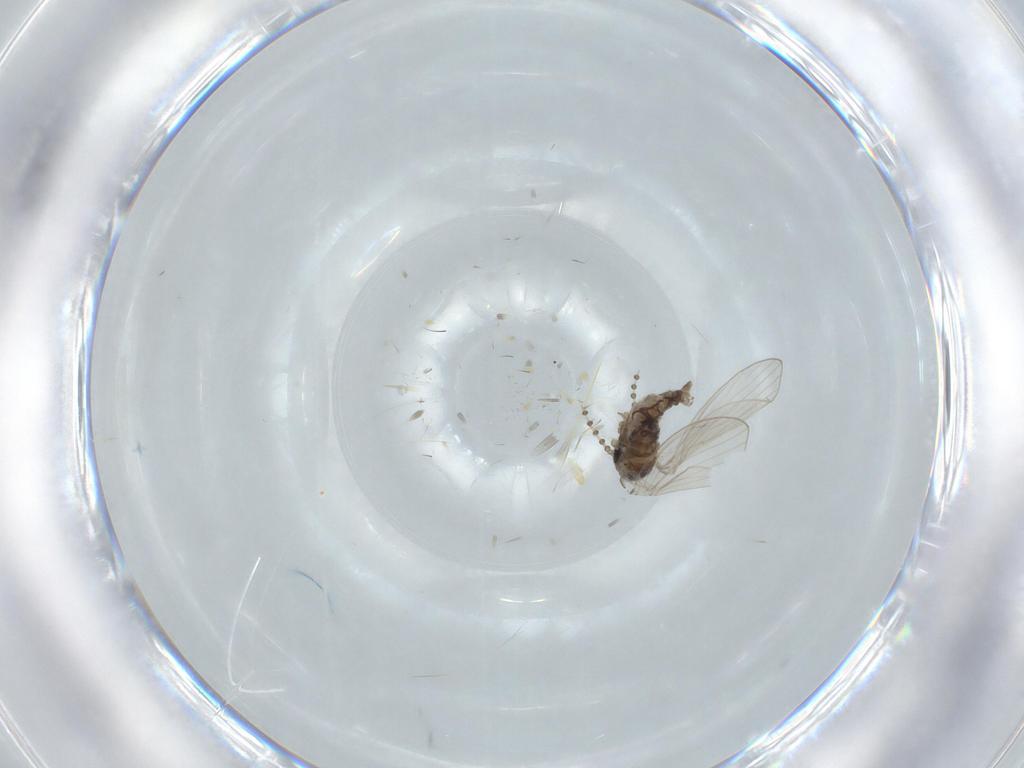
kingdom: Animalia
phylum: Arthropoda
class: Insecta
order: Diptera
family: Psychodidae
